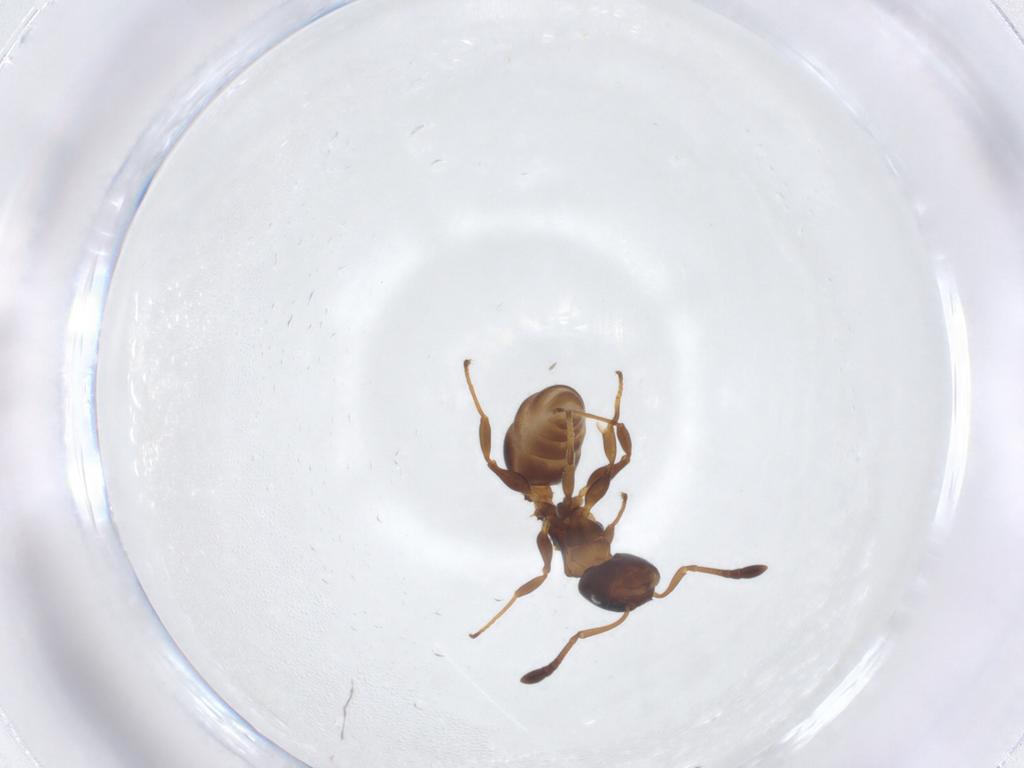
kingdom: Animalia
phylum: Arthropoda
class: Insecta
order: Hymenoptera
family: Formicidae
